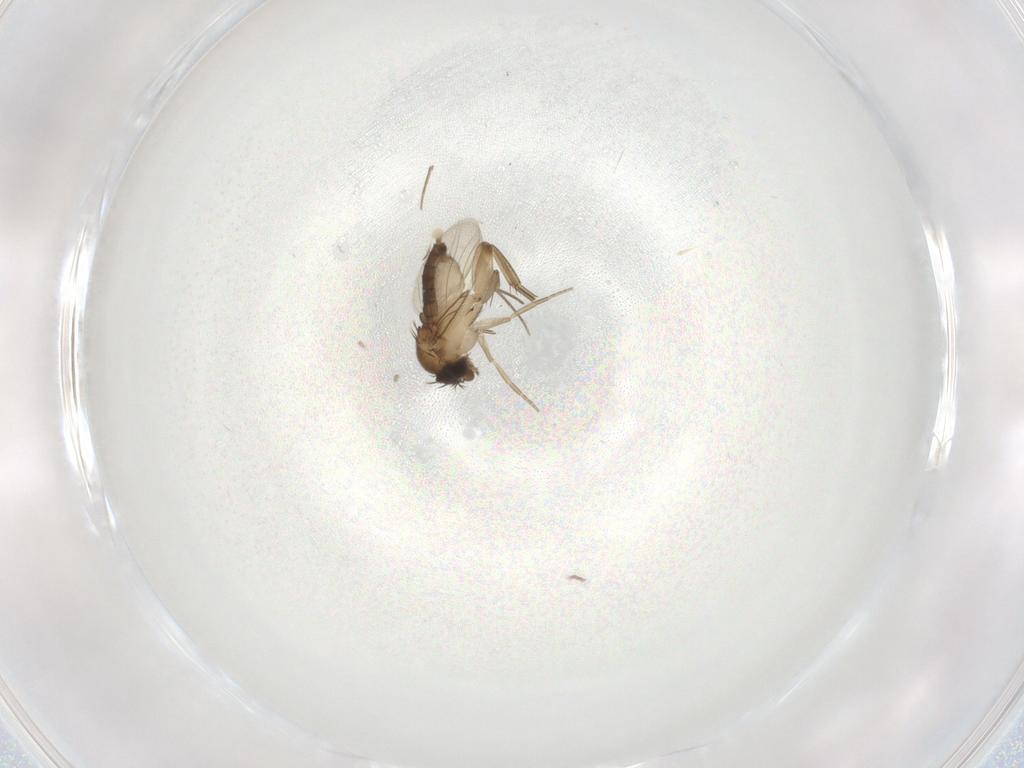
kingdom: Animalia
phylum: Arthropoda
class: Insecta
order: Diptera
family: Phoridae
